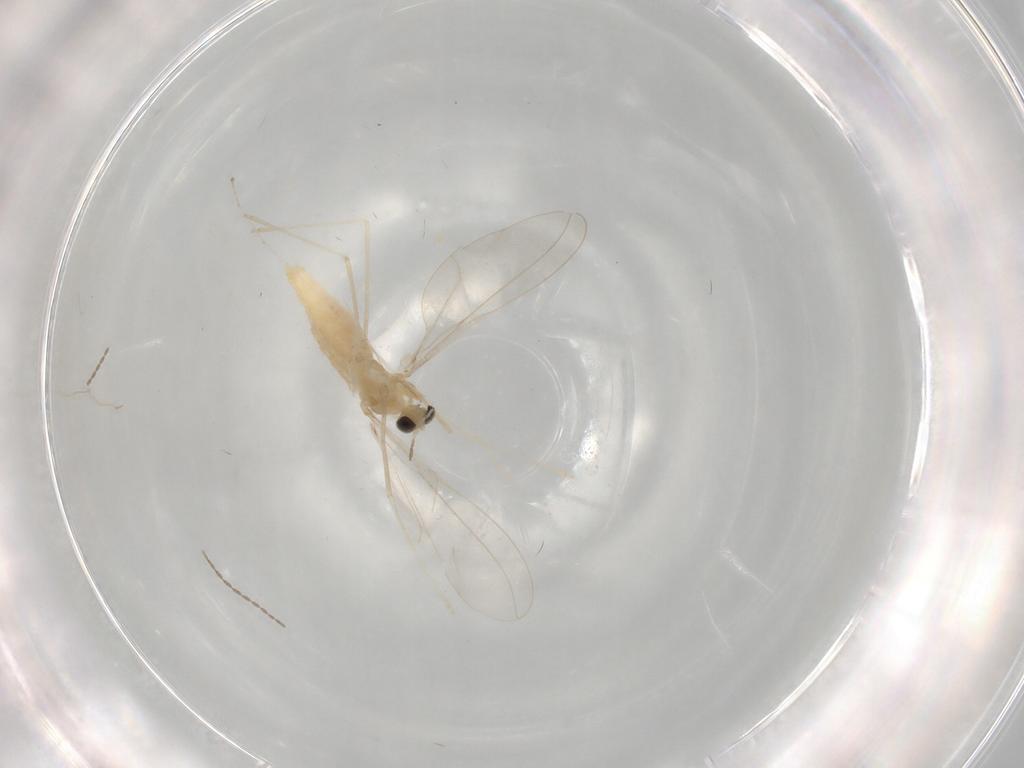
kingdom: Animalia
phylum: Arthropoda
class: Insecta
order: Diptera
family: Cecidomyiidae
